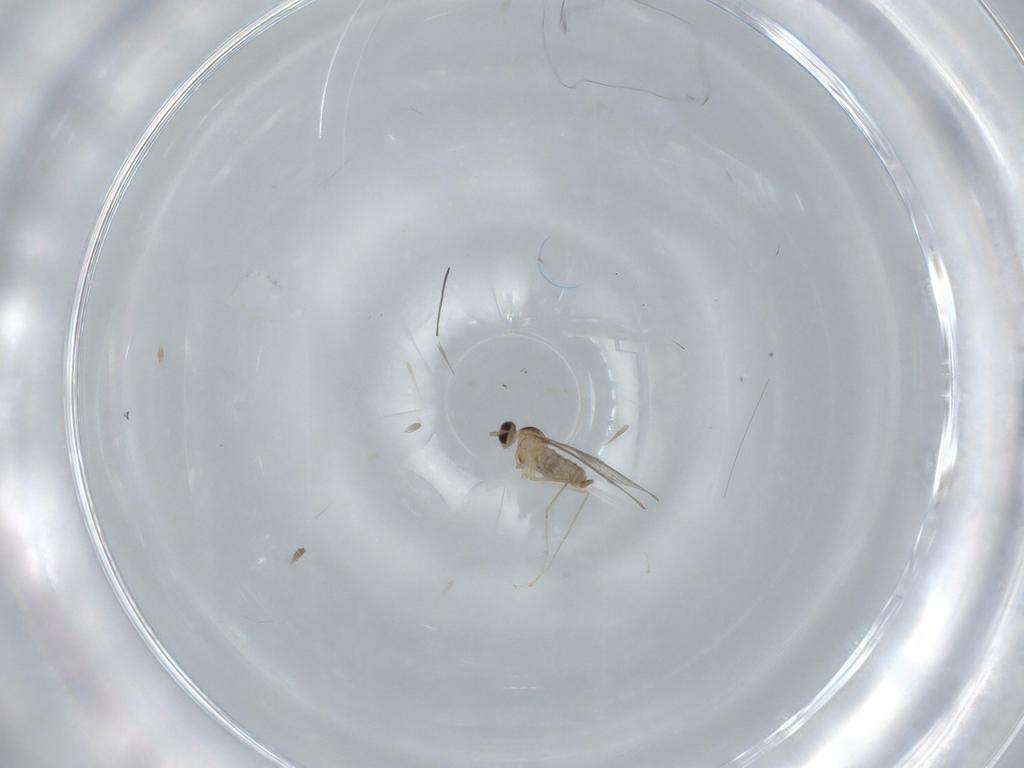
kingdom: Animalia
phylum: Arthropoda
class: Insecta
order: Diptera
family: Cecidomyiidae
